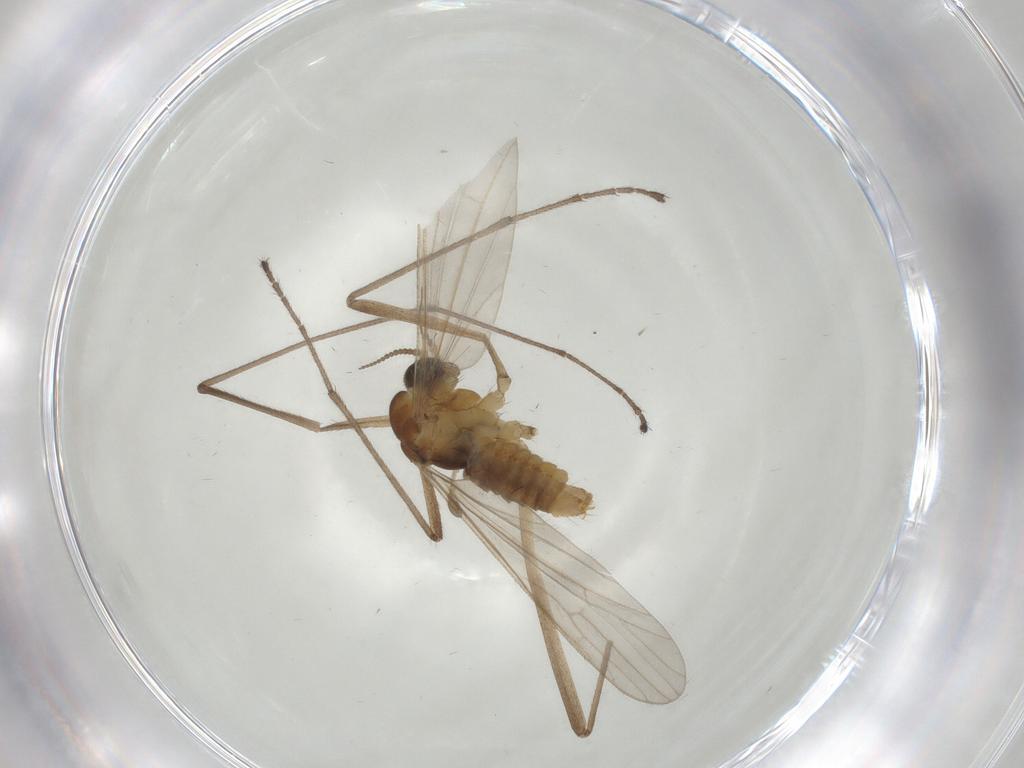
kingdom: Animalia
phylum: Arthropoda
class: Insecta
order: Diptera
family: Limoniidae
